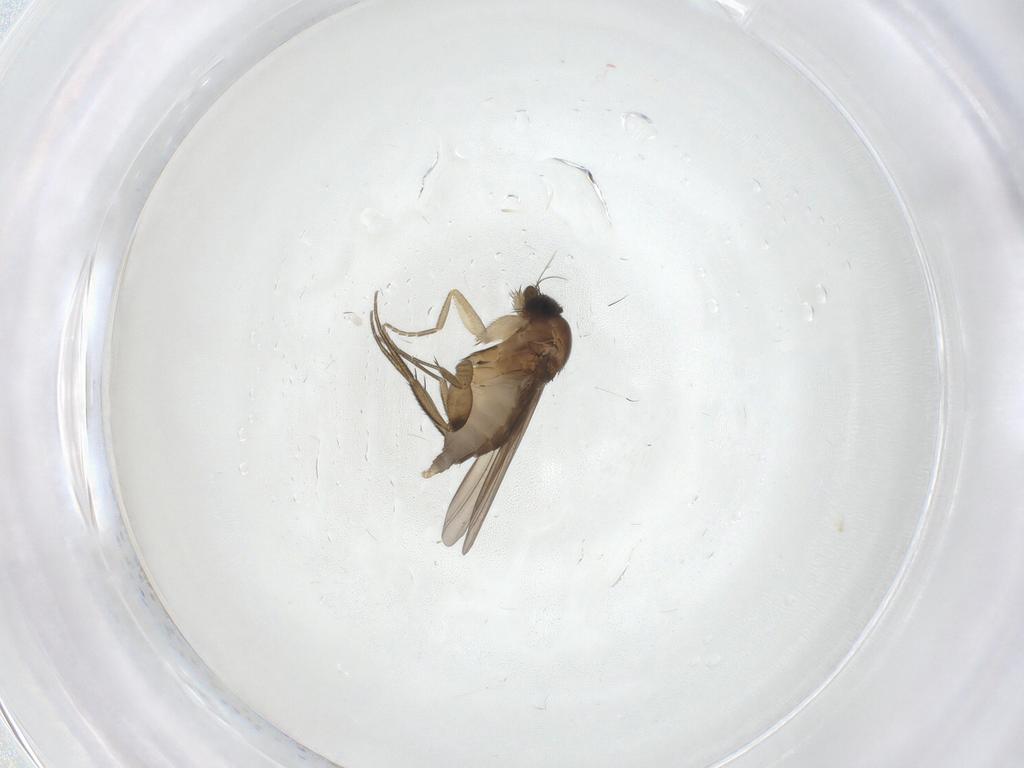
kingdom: Animalia
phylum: Arthropoda
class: Insecta
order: Diptera
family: Phoridae
